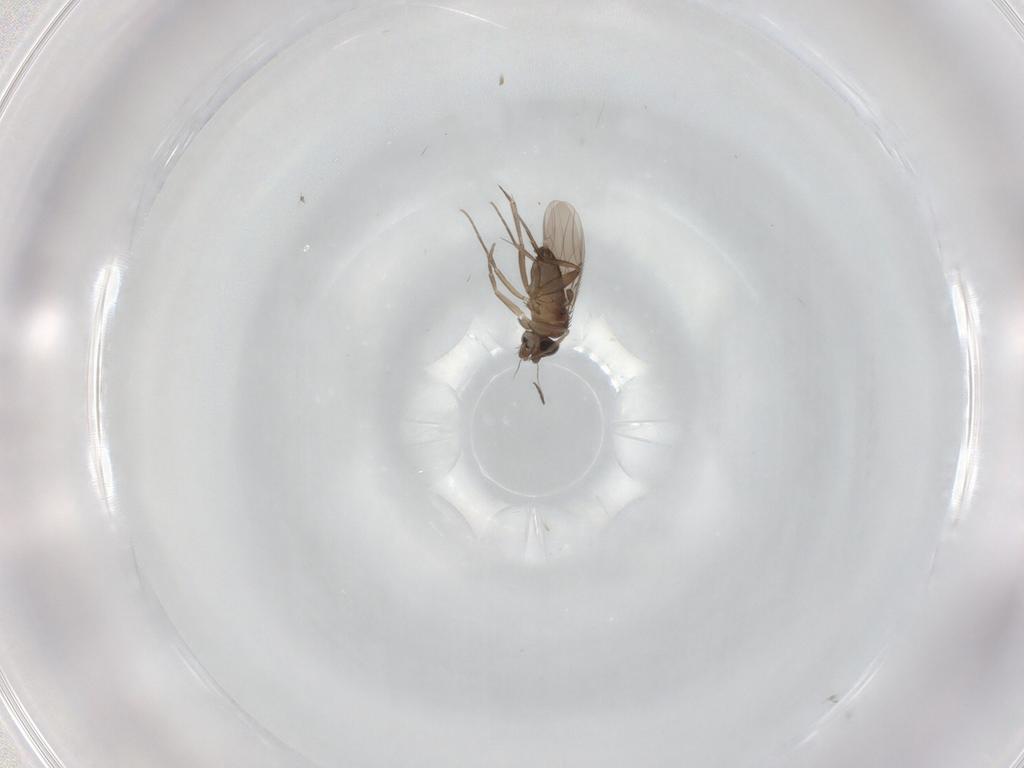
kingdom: Animalia
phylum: Arthropoda
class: Insecta
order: Diptera
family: Phoridae
